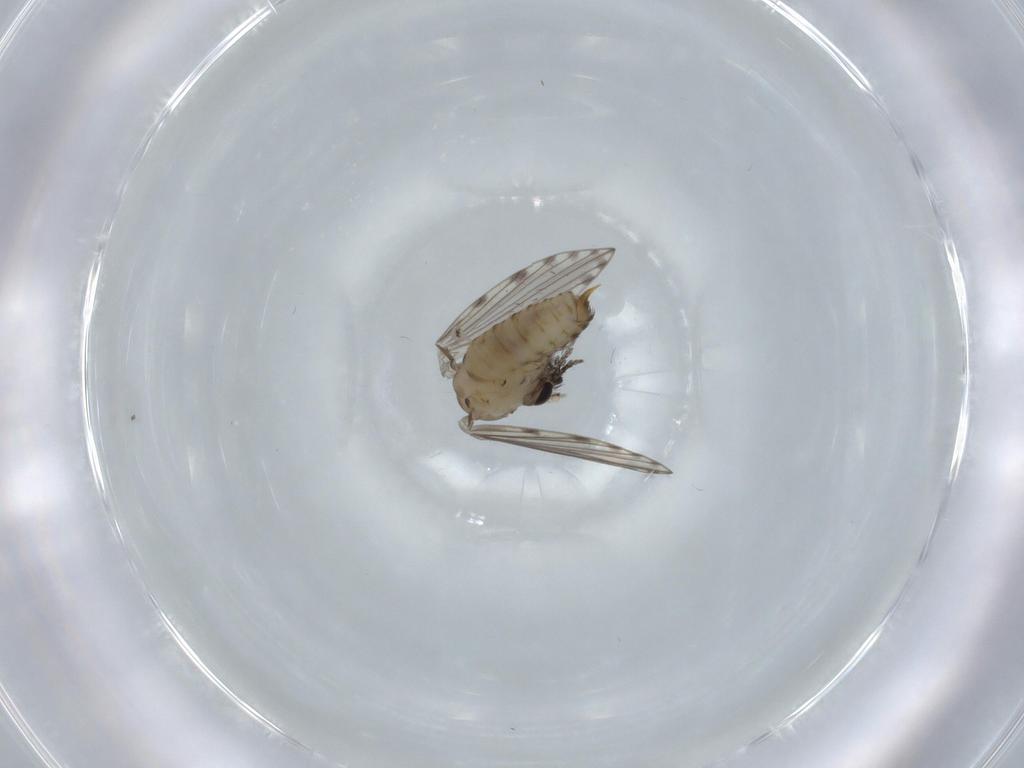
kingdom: Animalia
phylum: Arthropoda
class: Insecta
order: Diptera
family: Psychodidae
